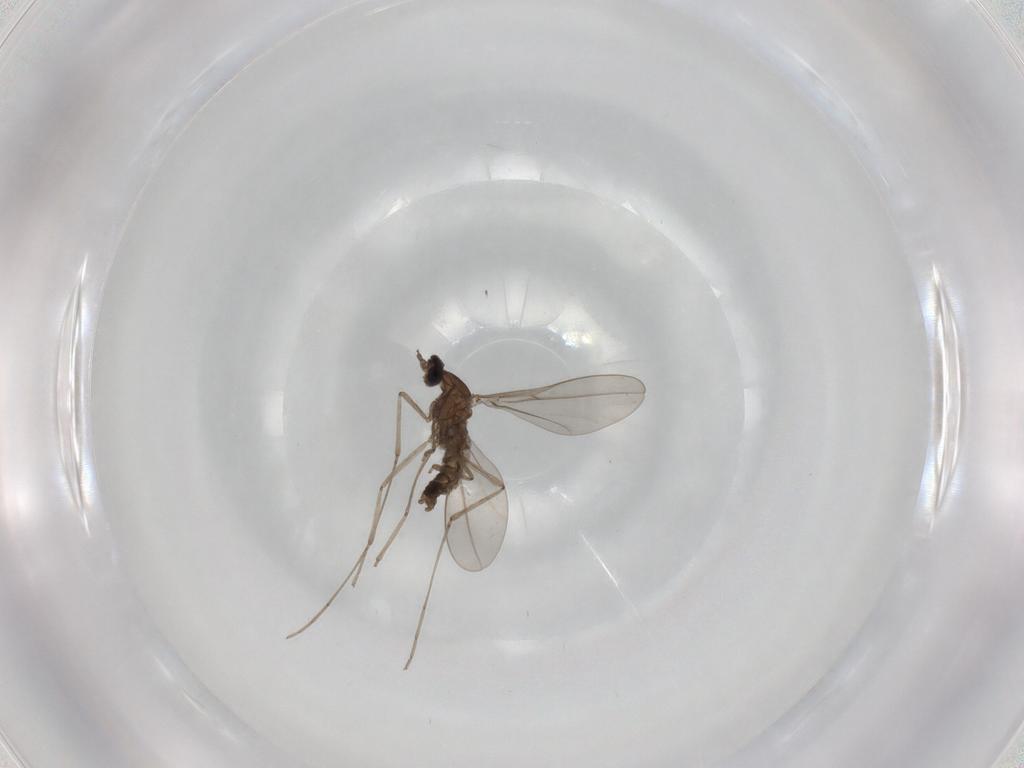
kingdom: Animalia
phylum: Arthropoda
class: Insecta
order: Diptera
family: Cecidomyiidae
